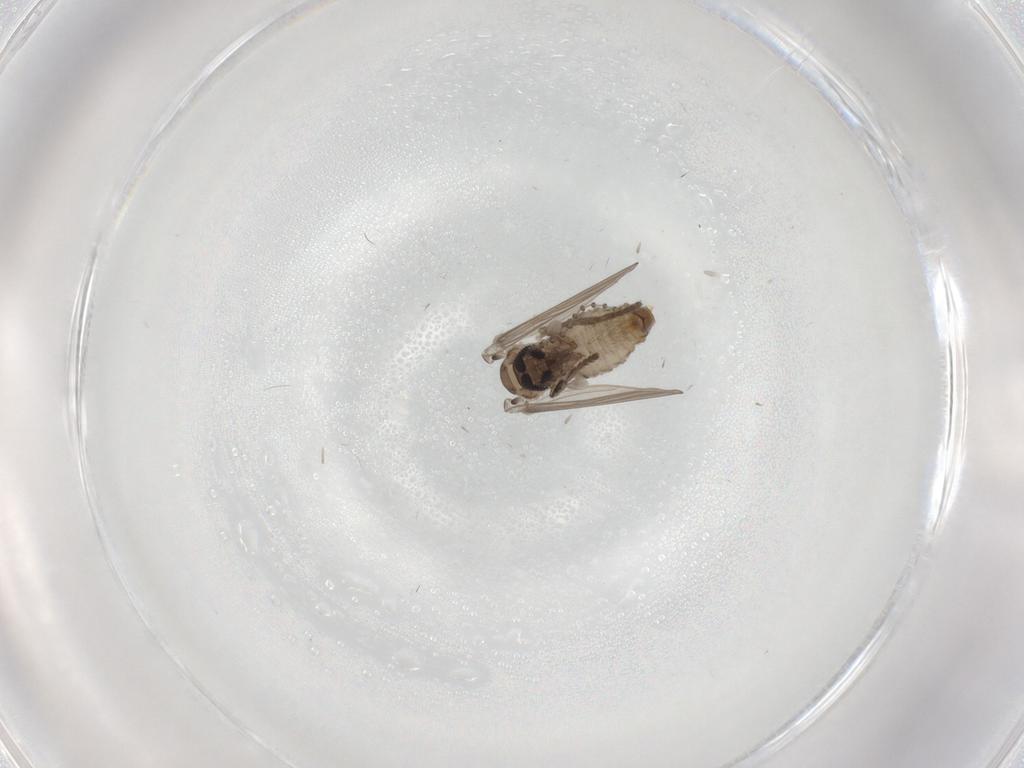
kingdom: Animalia
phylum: Arthropoda
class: Insecta
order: Diptera
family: Psychodidae
